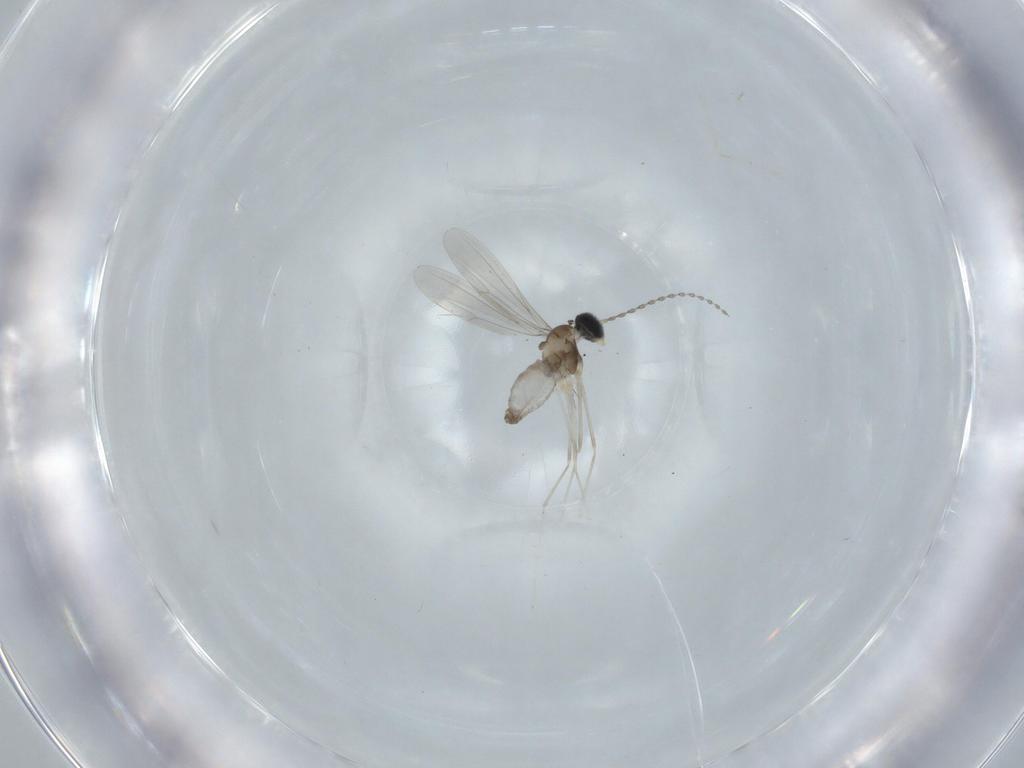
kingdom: Animalia
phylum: Arthropoda
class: Insecta
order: Diptera
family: Cecidomyiidae
